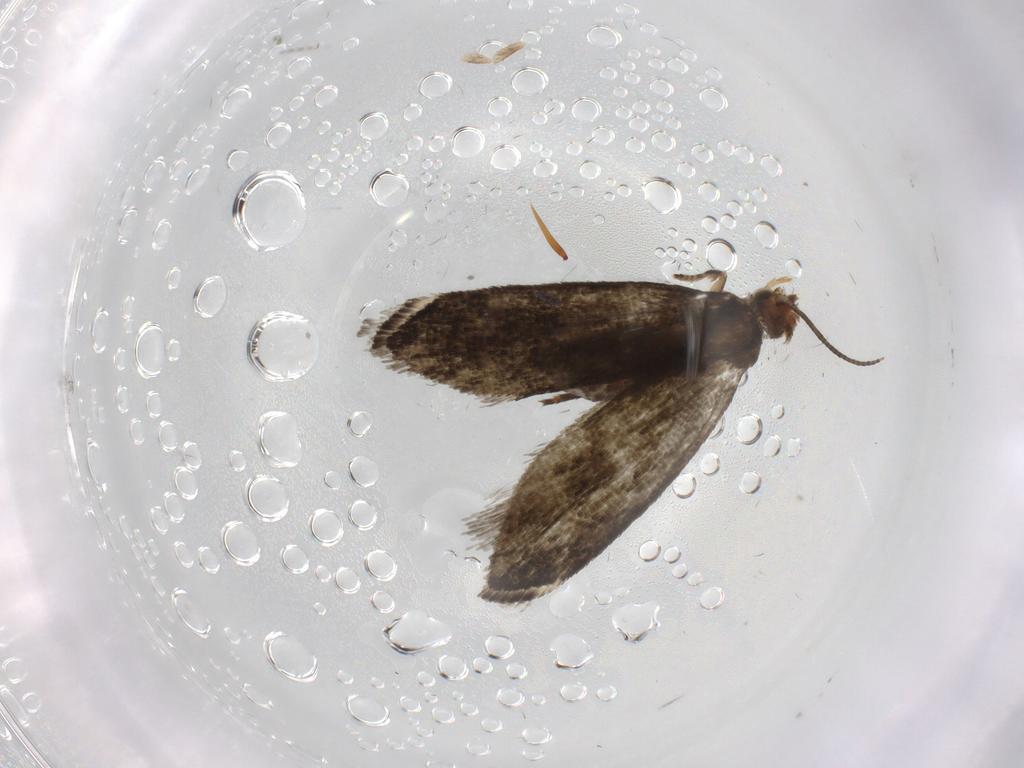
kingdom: Animalia
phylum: Arthropoda
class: Insecta
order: Lepidoptera
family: Tineidae
